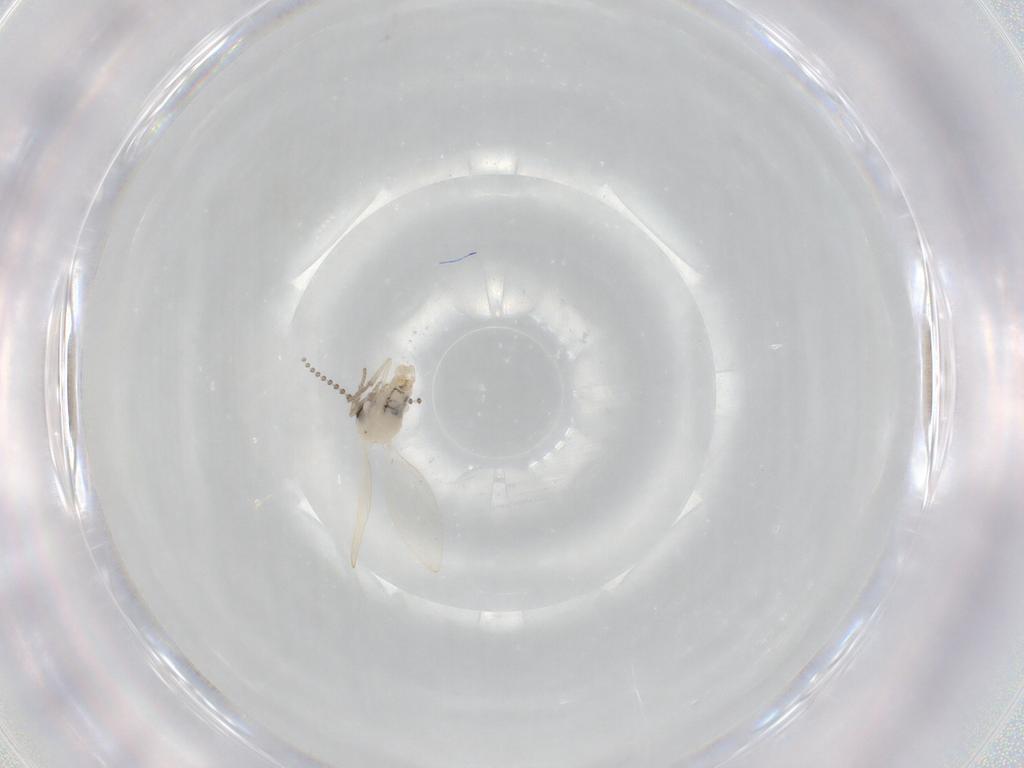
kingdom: Animalia
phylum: Arthropoda
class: Insecta
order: Diptera
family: Psychodidae
